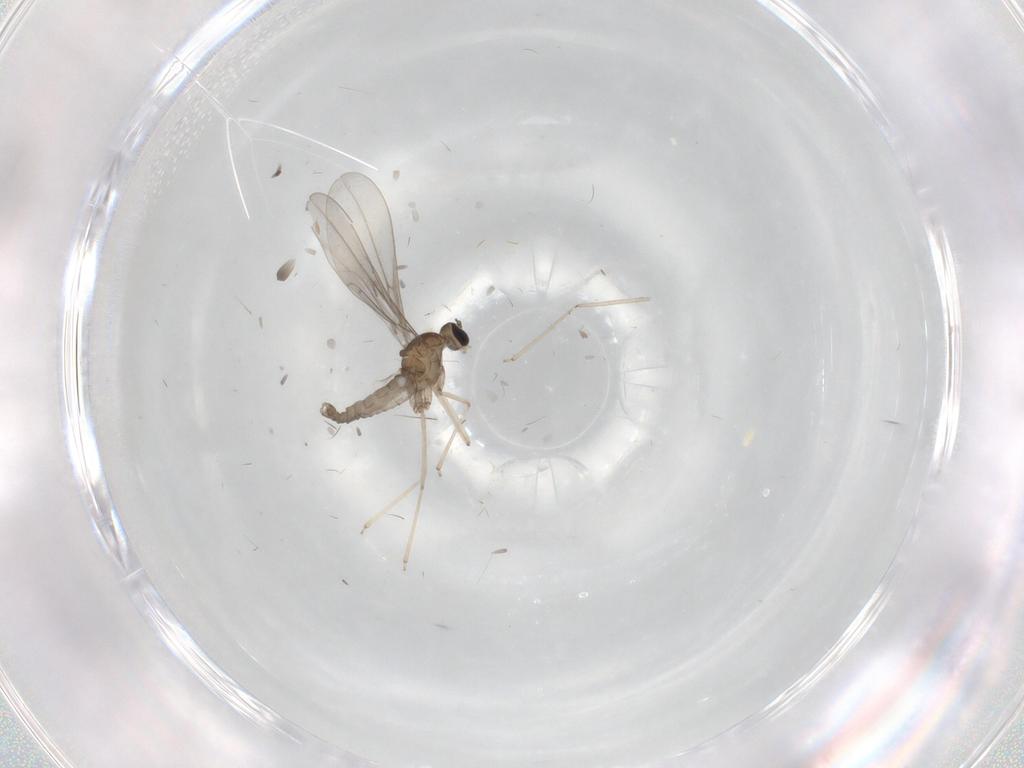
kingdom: Animalia
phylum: Arthropoda
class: Insecta
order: Diptera
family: Cecidomyiidae
